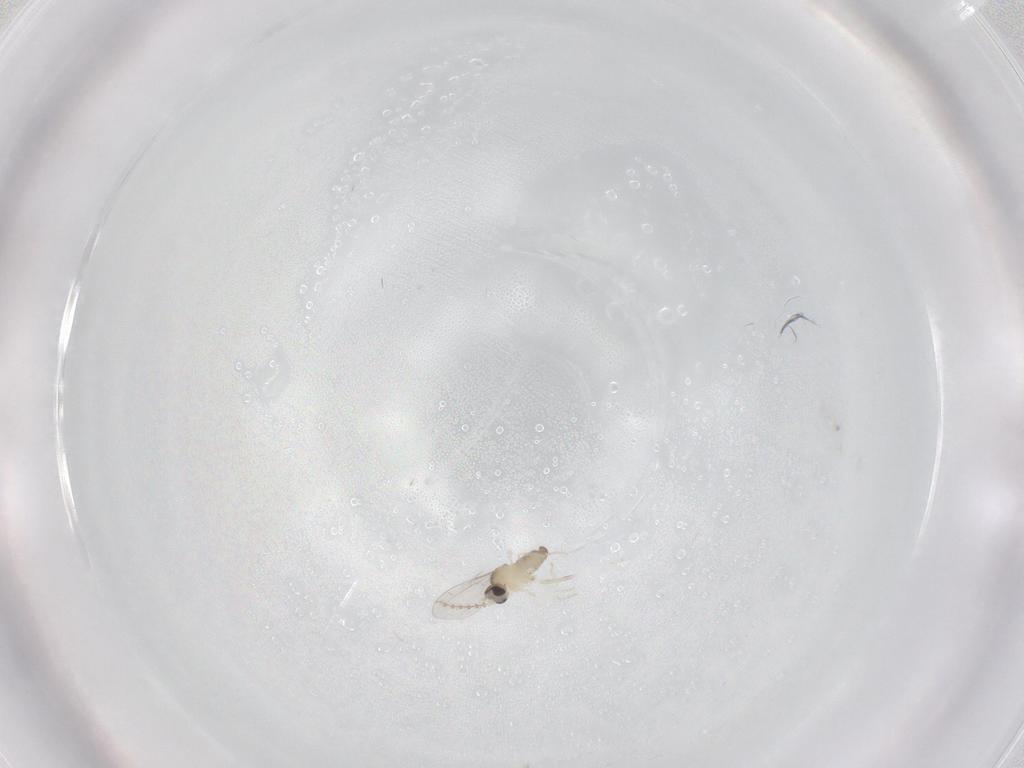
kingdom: Animalia
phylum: Arthropoda
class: Insecta
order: Diptera
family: Cecidomyiidae
